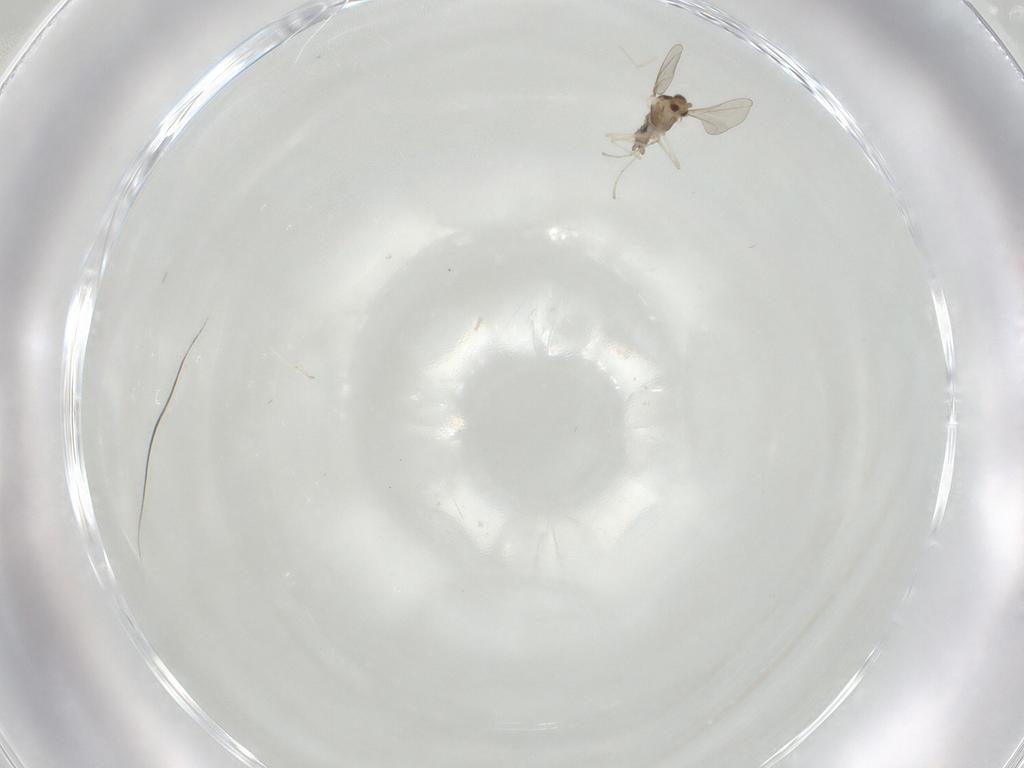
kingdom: Animalia
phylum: Arthropoda
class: Insecta
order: Diptera
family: Cecidomyiidae
